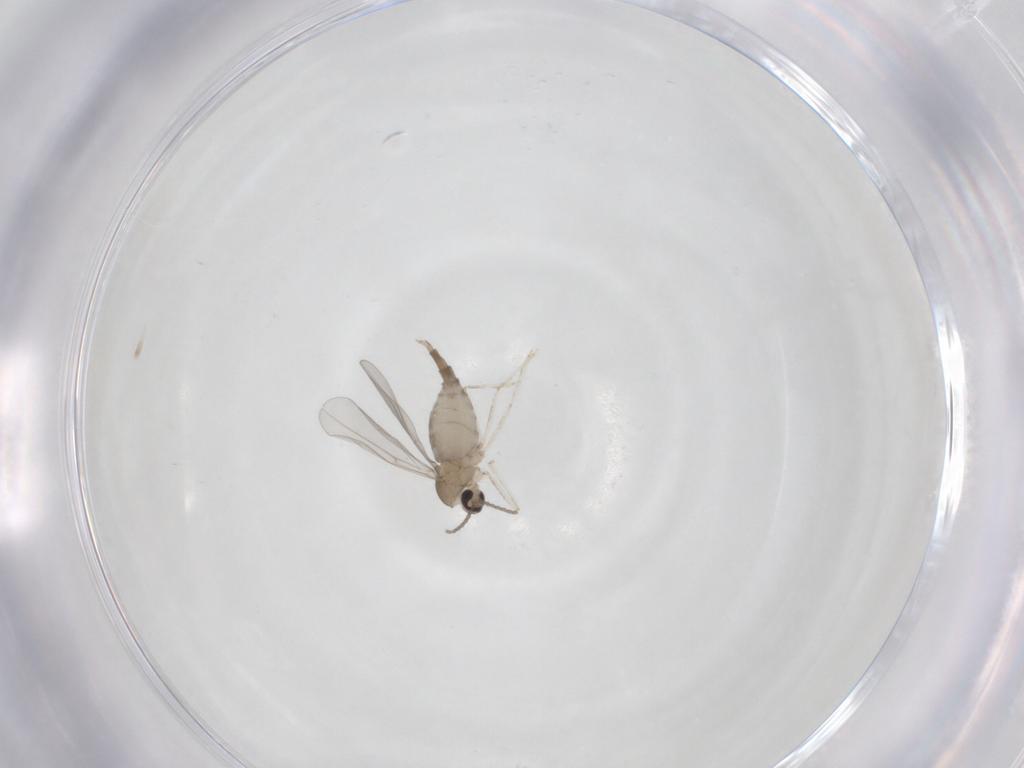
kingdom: Animalia
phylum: Arthropoda
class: Insecta
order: Diptera
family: Cecidomyiidae
